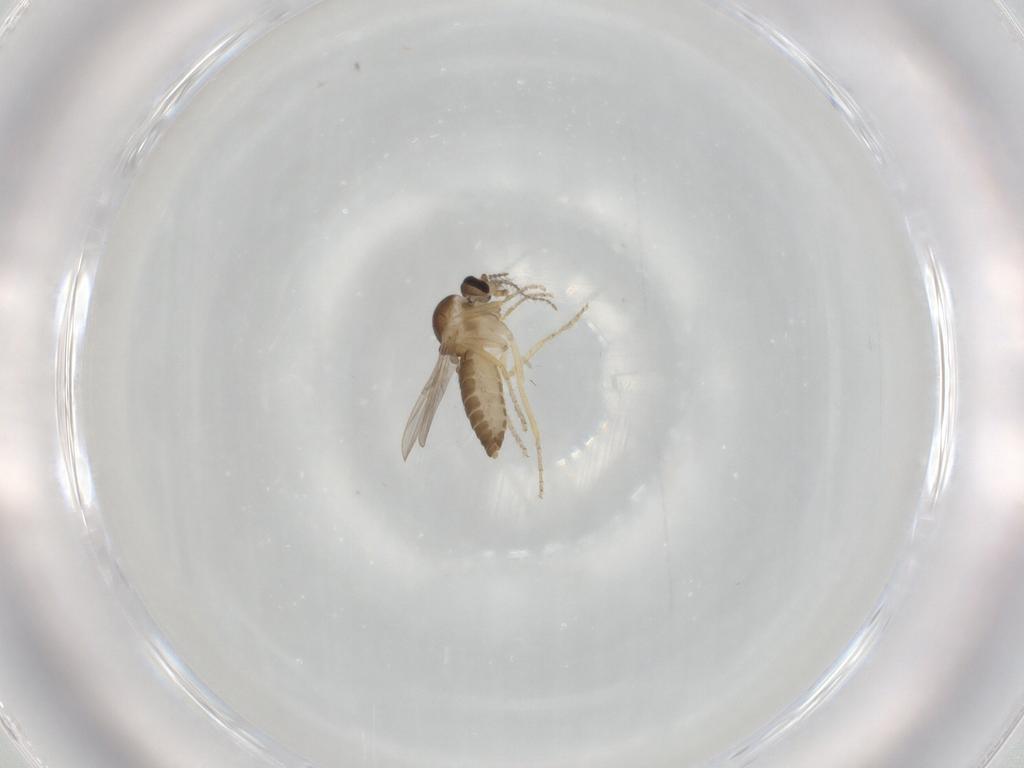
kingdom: Animalia
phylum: Arthropoda
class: Insecta
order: Diptera
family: Ceratopogonidae
